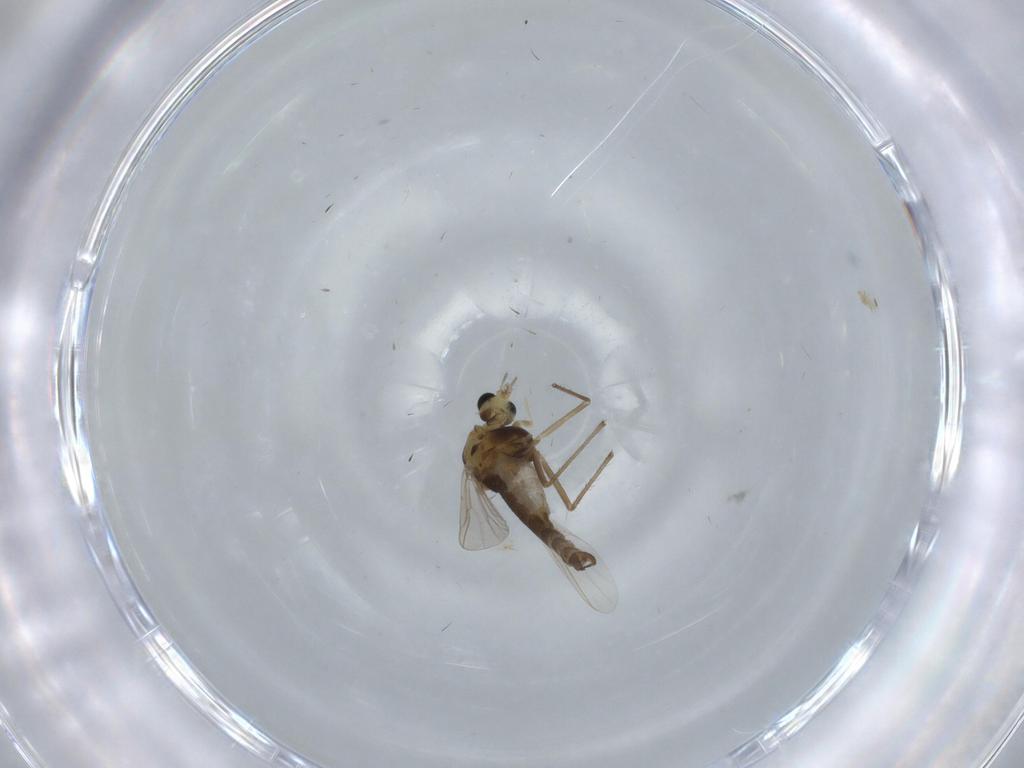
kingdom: Animalia
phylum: Arthropoda
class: Insecta
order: Diptera
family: Chironomidae
